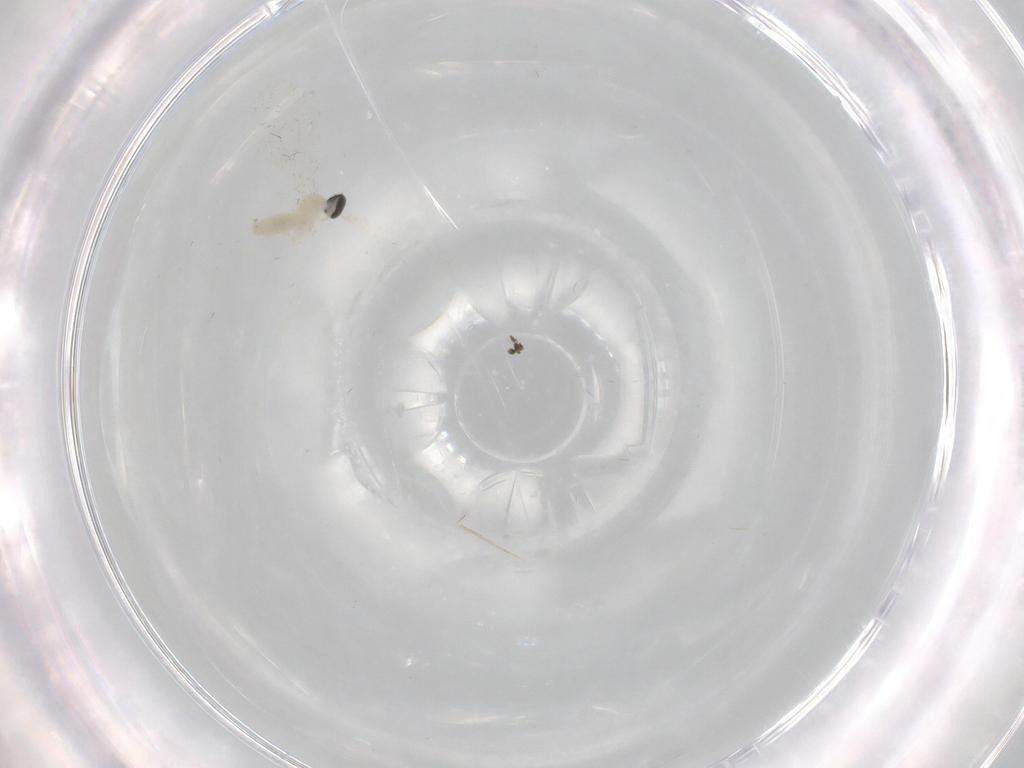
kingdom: Animalia
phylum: Arthropoda
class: Insecta
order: Diptera
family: Cecidomyiidae
